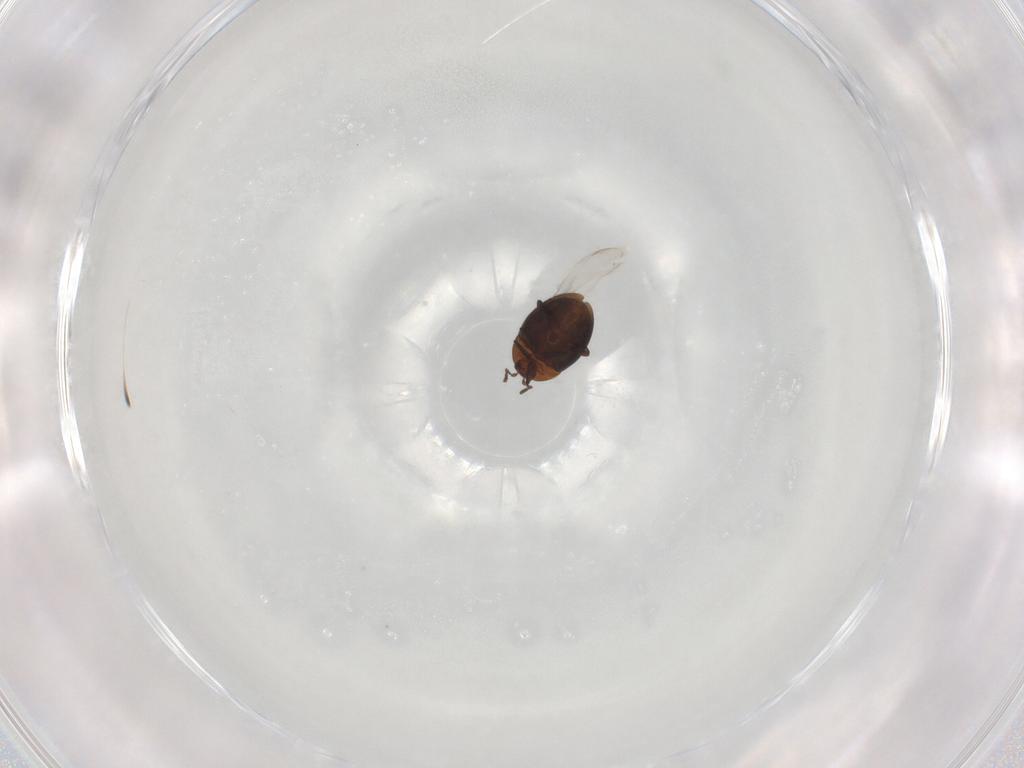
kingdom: Animalia
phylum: Arthropoda
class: Insecta
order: Coleoptera
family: Corylophidae
